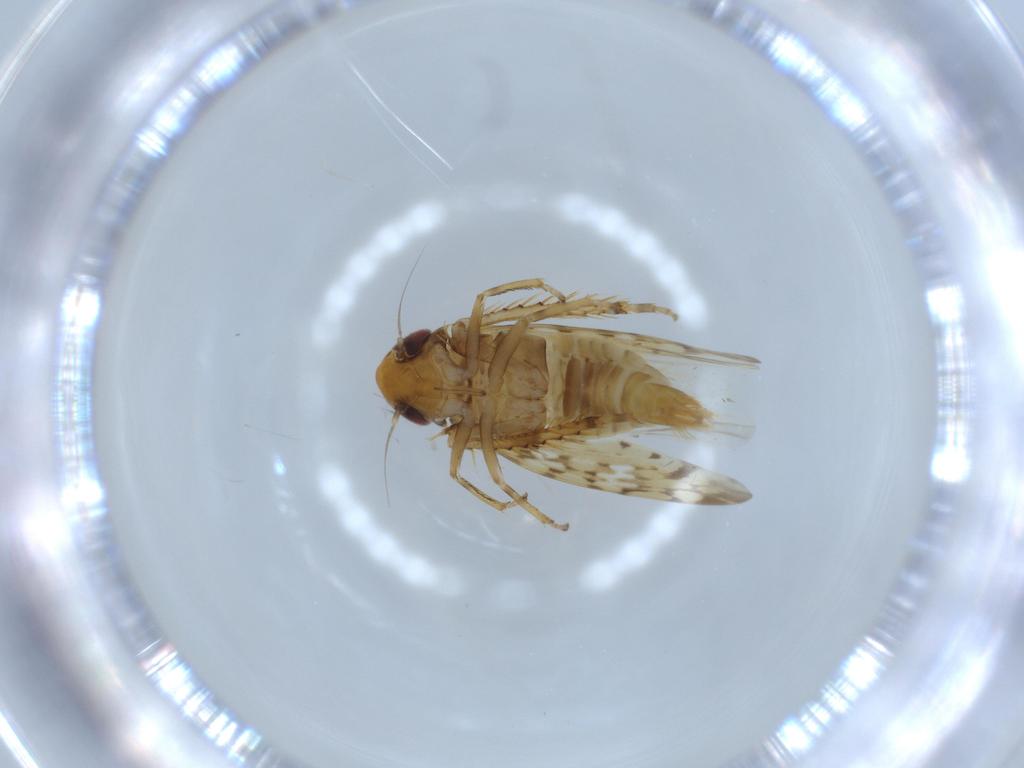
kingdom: Animalia
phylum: Arthropoda
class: Insecta
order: Hemiptera
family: Cicadellidae
